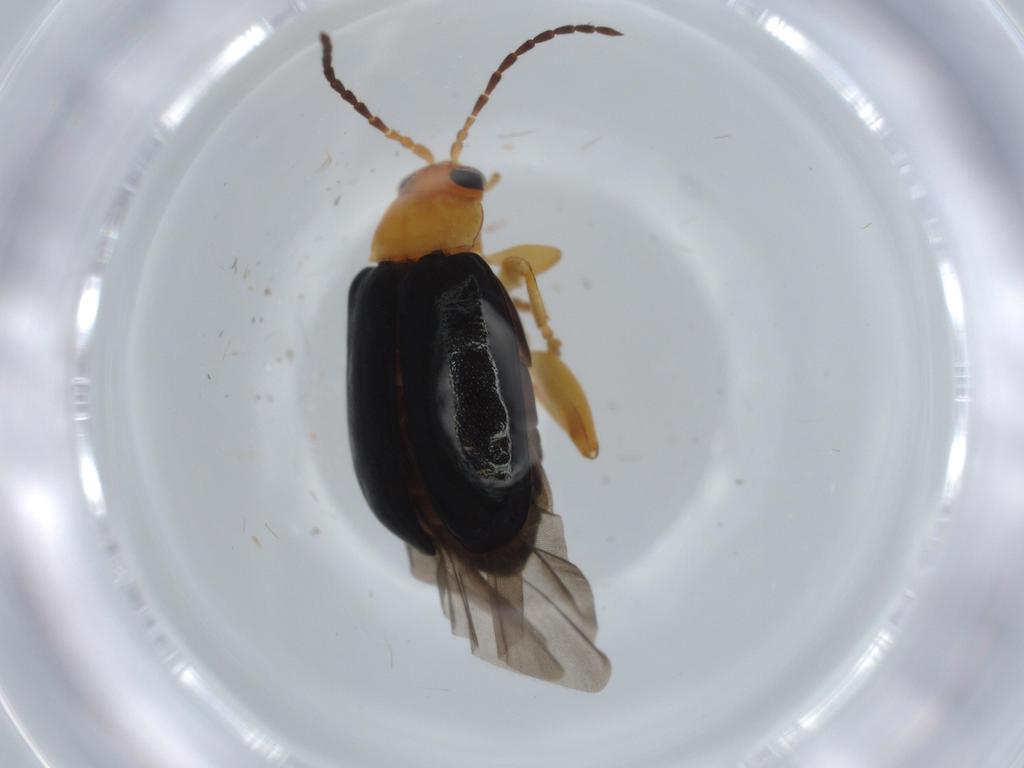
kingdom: Animalia
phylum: Arthropoda
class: Insecta
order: Coleoptera
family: Chrysomelidae
